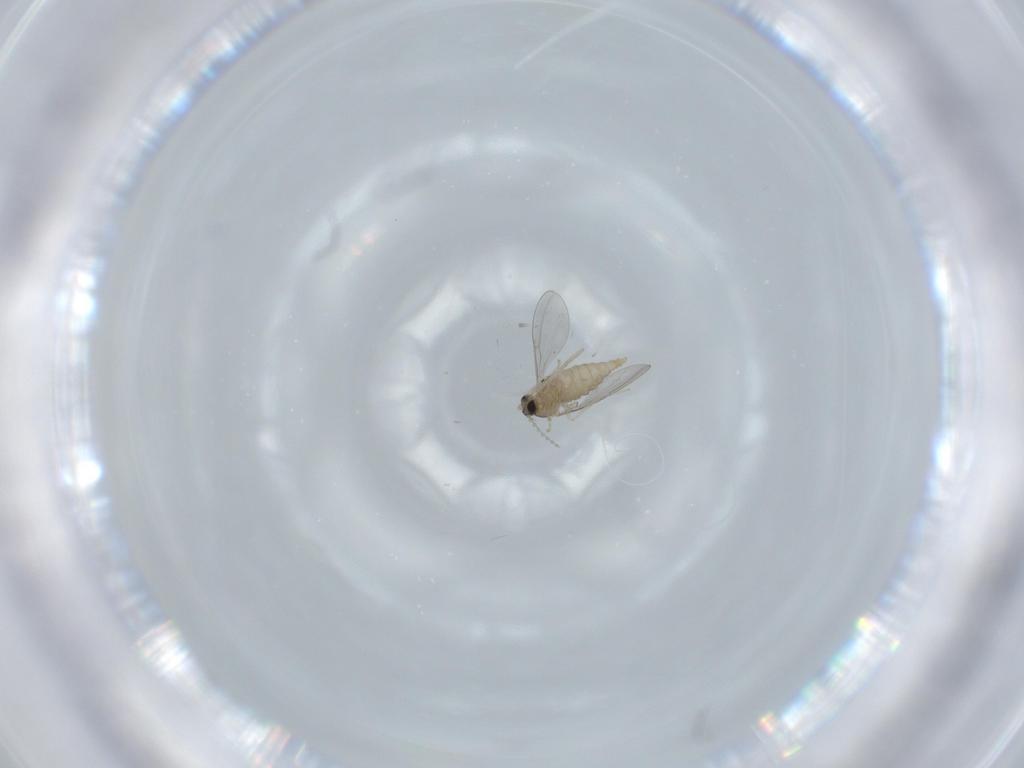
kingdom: Animalia
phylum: Arthropoda
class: Insecta
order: Diptera
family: Cecidomyiidae
